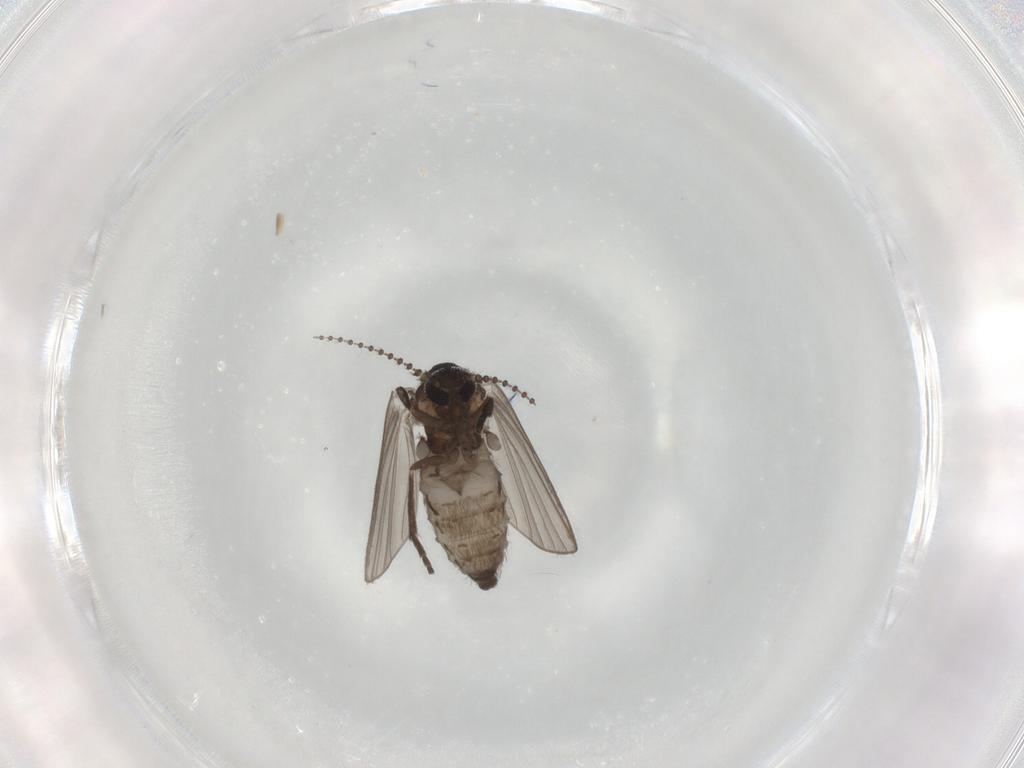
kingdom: Animalia
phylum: Arthropoda
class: Insecta
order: Diptera
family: Psychodidae
